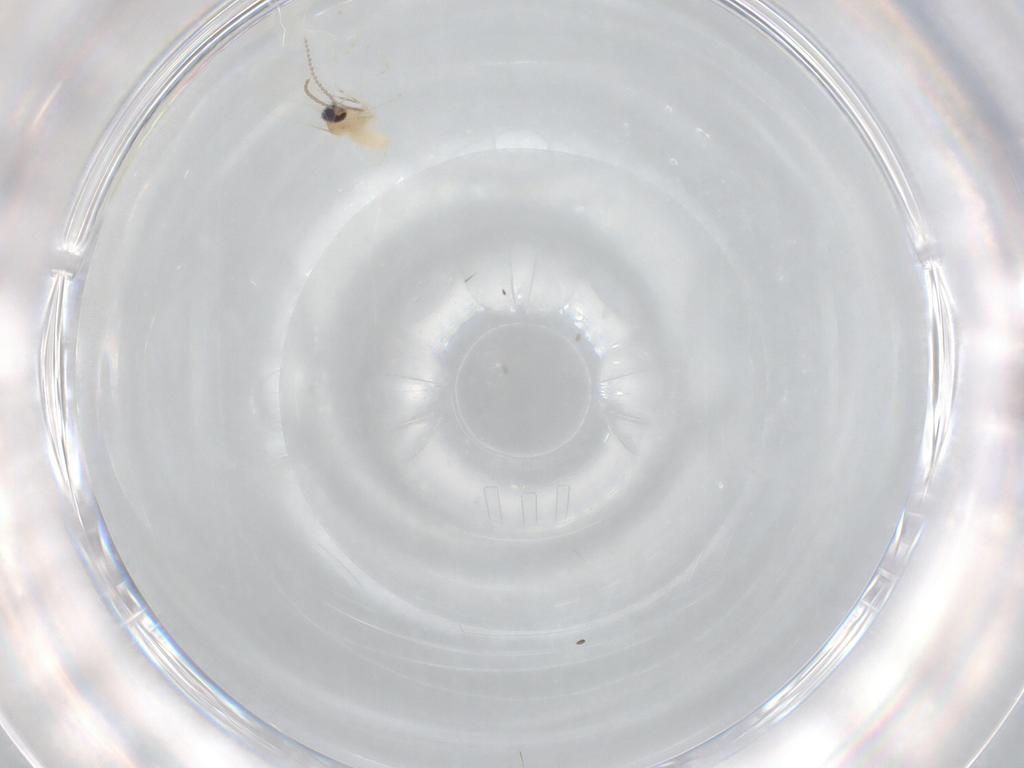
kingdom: Animalia
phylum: Arthropoda
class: Insecta
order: Diptera
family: Cecidomyiidae
